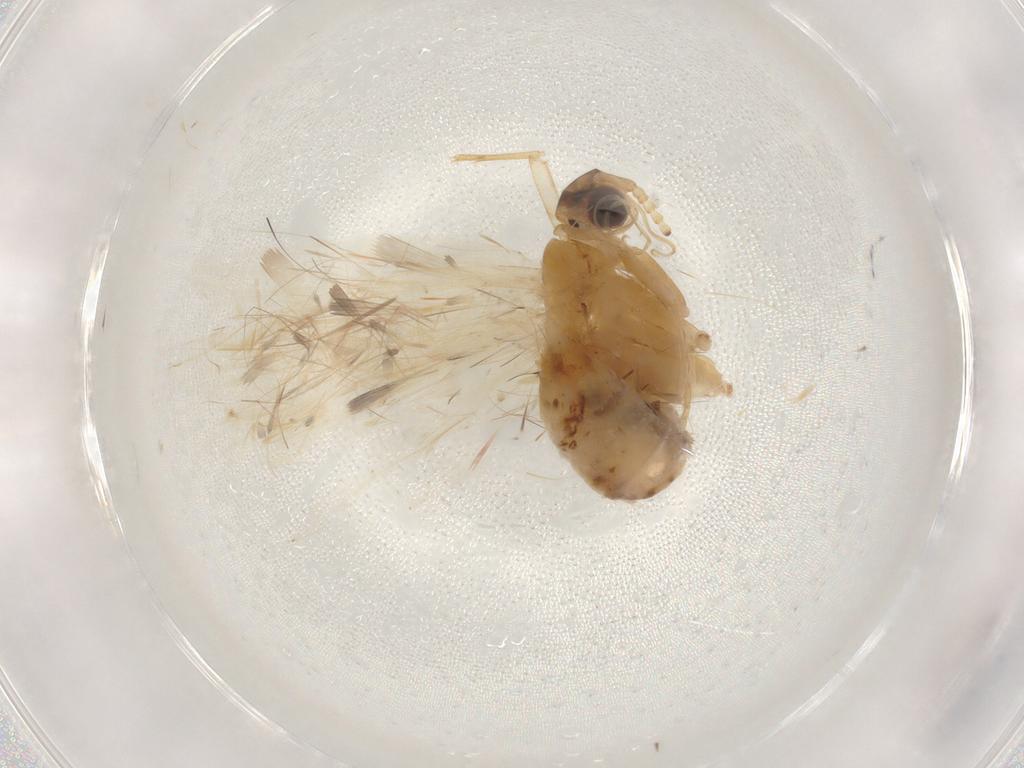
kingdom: Animalia
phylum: Arthropoda
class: Insecta
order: Lepidoptera
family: Lecithoceridae
